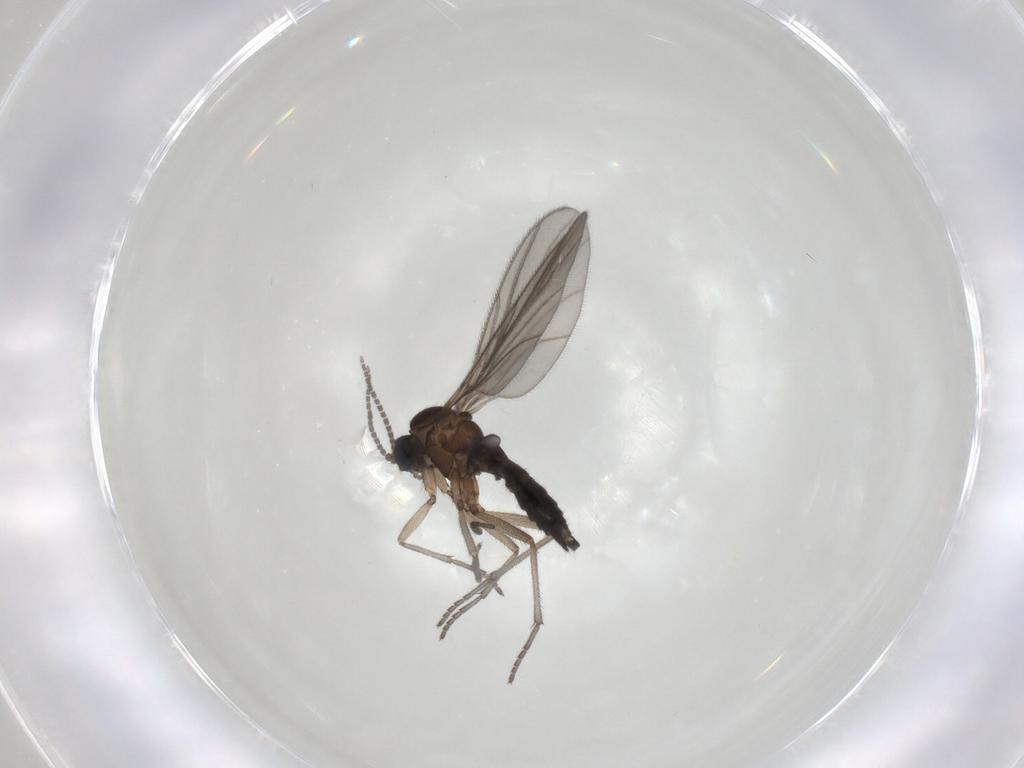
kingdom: Animalia
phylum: Arthropoda
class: Insecta
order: Diptera
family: Sciaridae
